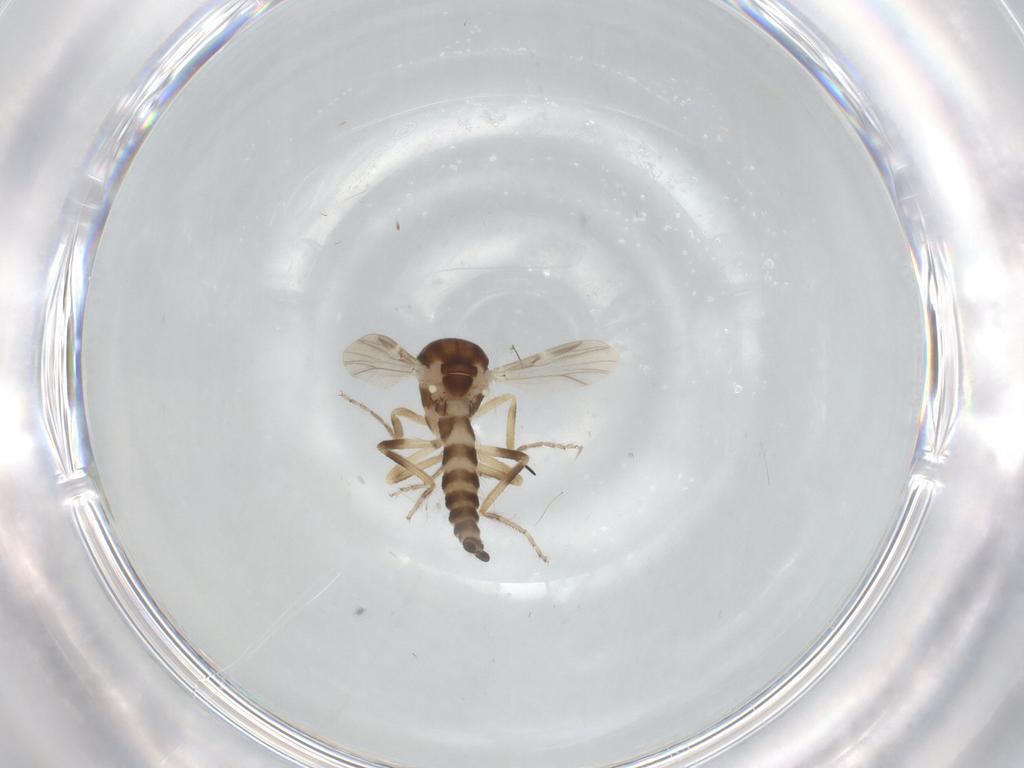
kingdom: Animalia
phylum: Arthropoda
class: Insecta
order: Diptera
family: Ceratopogonidae
